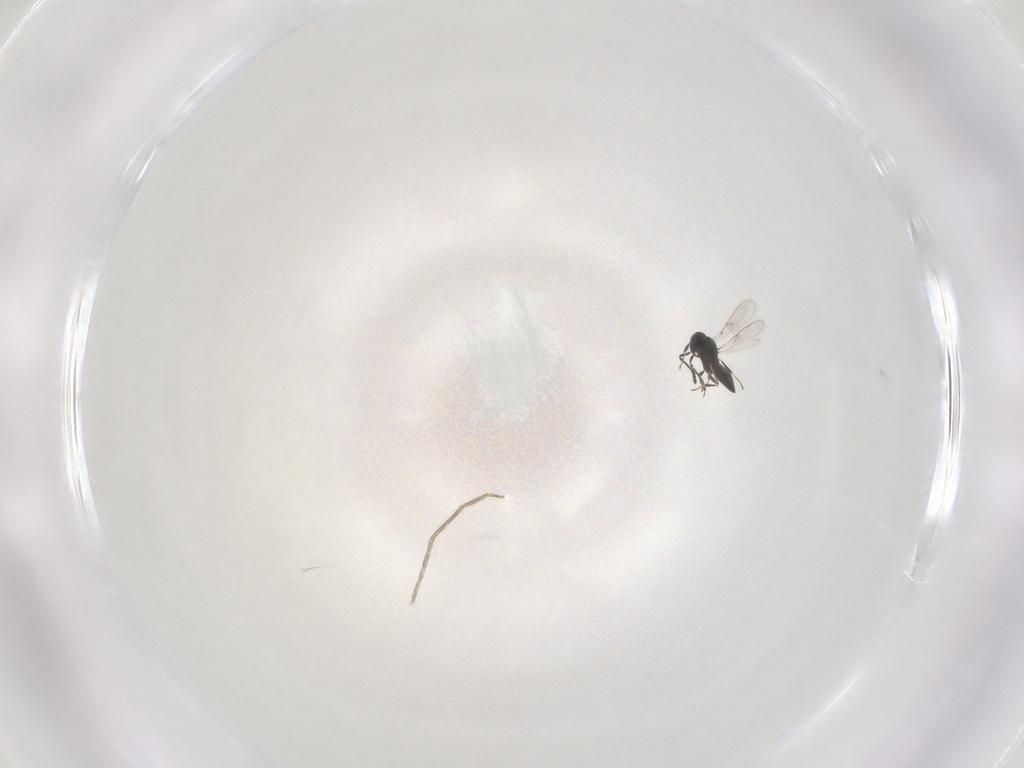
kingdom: Animalia
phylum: Arthropoda
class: Insecta
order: Hymenoptera
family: Scelionidae
